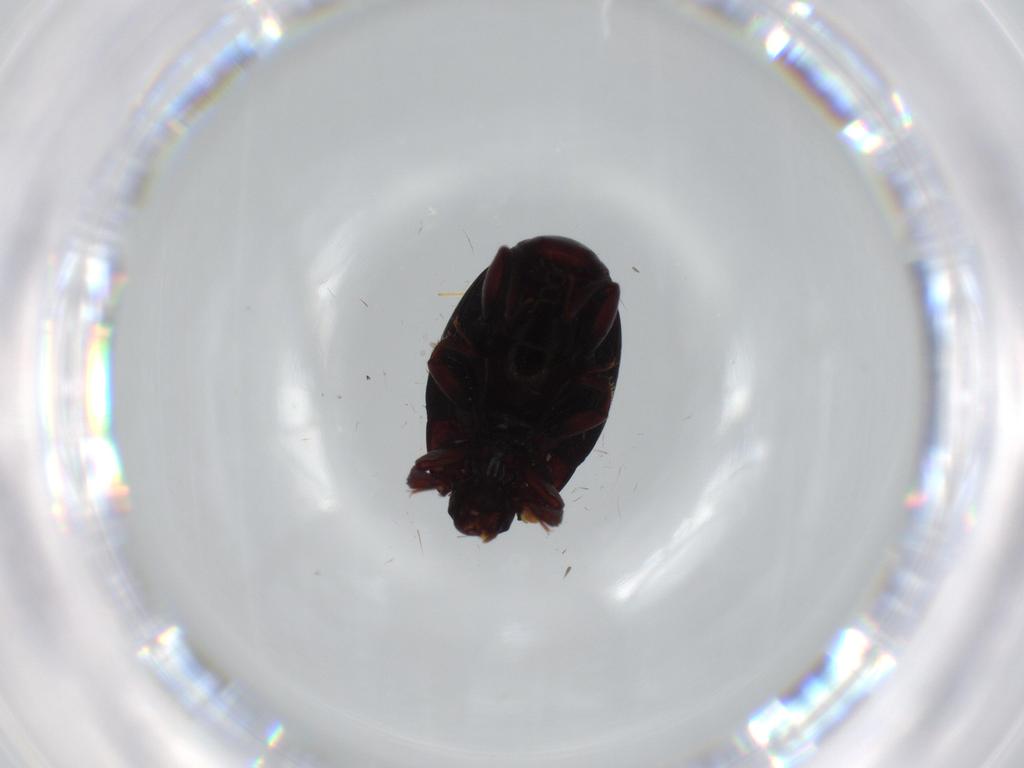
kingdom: Animalia
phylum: Arthropoda
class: Insecta
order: Coleoptera
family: Histeridae
